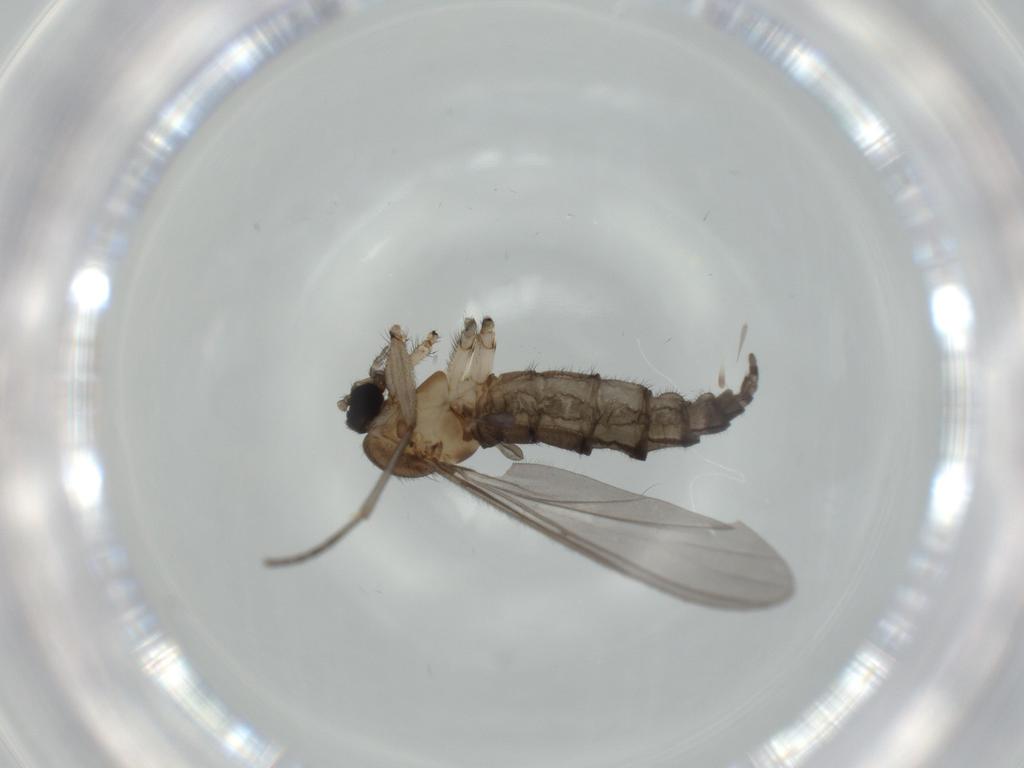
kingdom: Animalia
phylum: Arthropoda
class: Insecta
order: Diptera
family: Sciaridae
